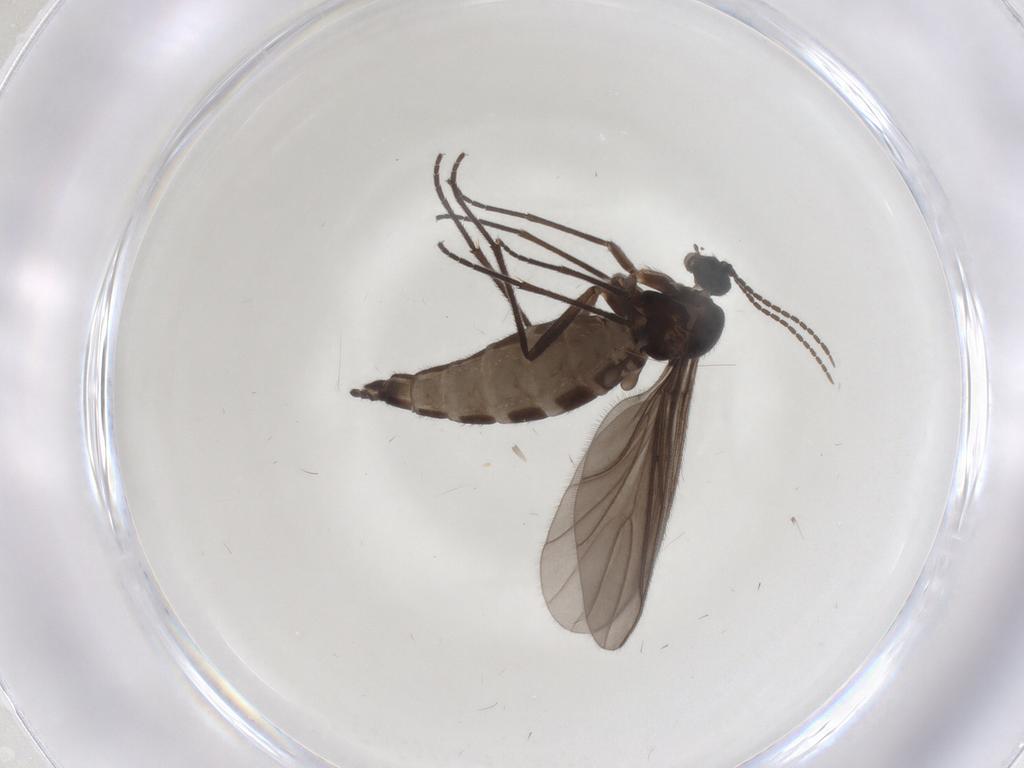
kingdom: Animalia
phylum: Arthropoda
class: Insecta
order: Diptera
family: Sciaridae
